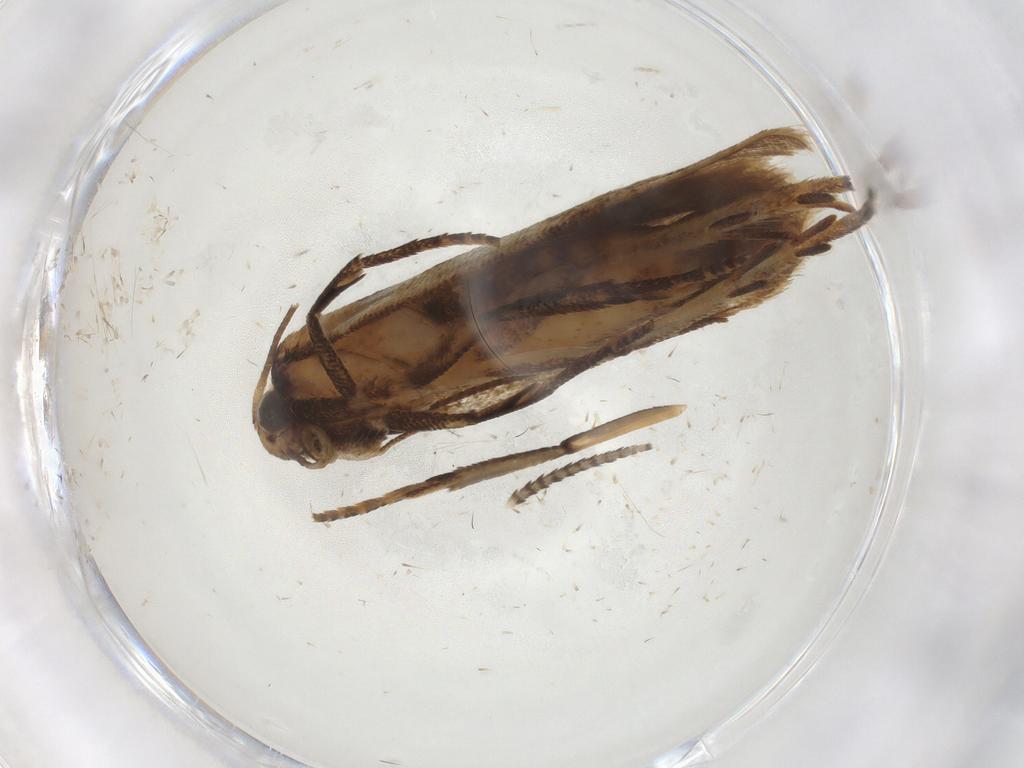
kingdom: Animalia
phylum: Arthropoda
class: Insecta
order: Lepidoptera
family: Gelechiidae
